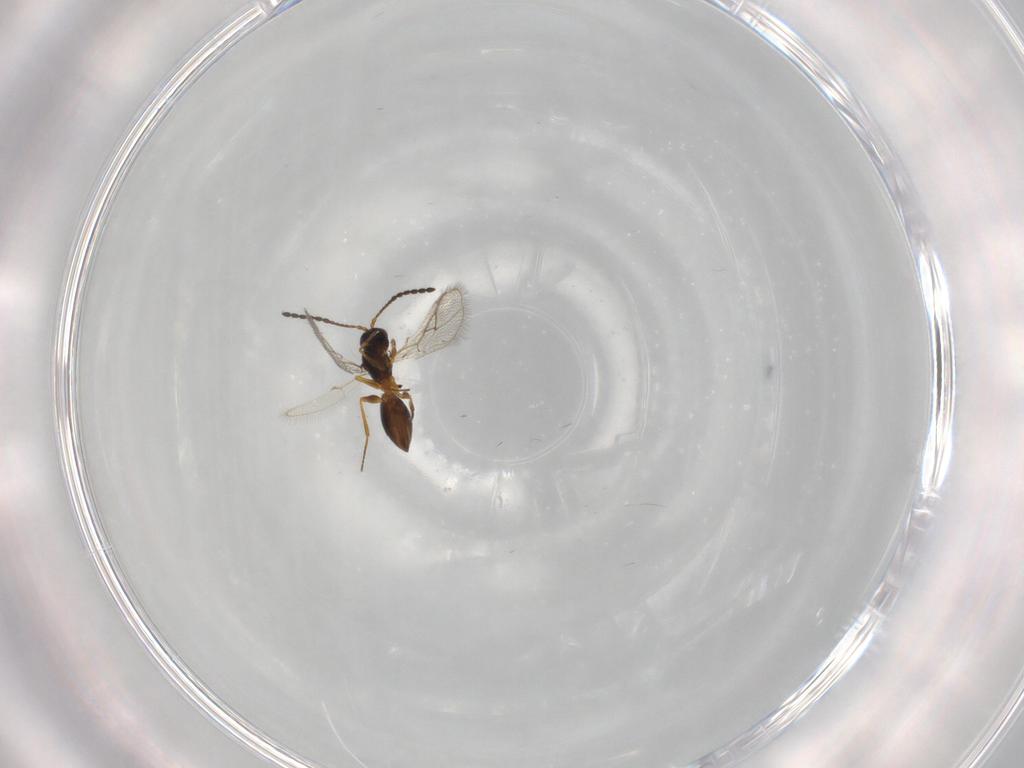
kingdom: Animalia
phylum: Arthropoda
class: Insecta
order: Hymenoptera
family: Figitidae
